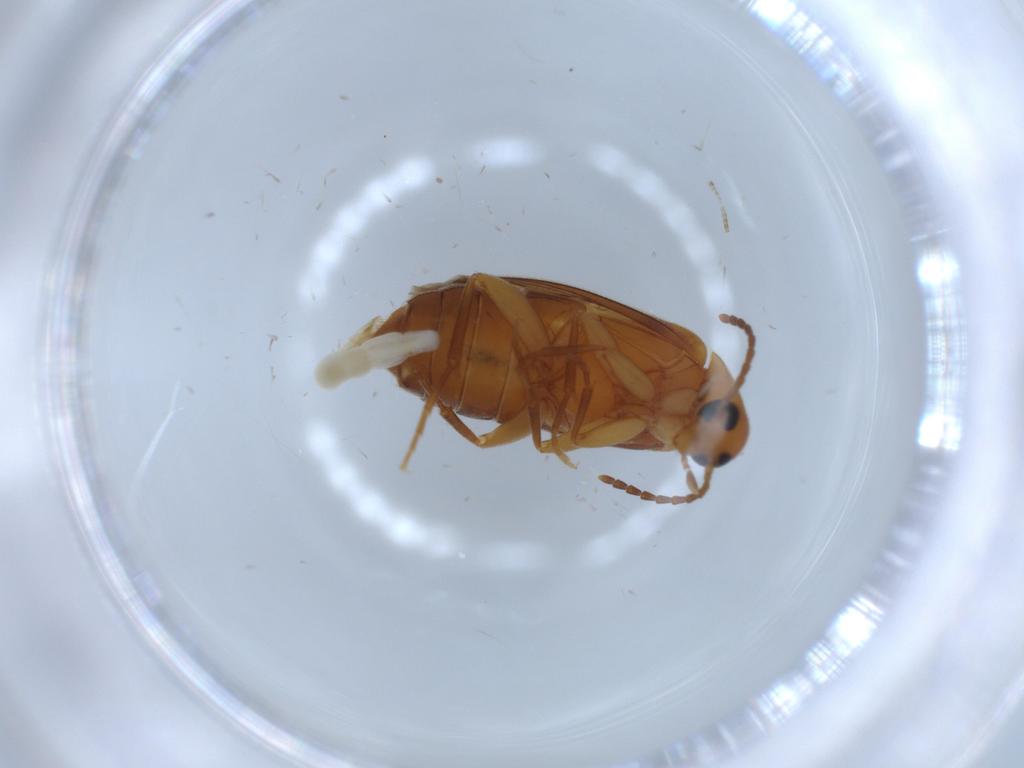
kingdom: Animalia
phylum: Arthropoda
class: Insecta
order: Coleoptera
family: Scraptiidae
